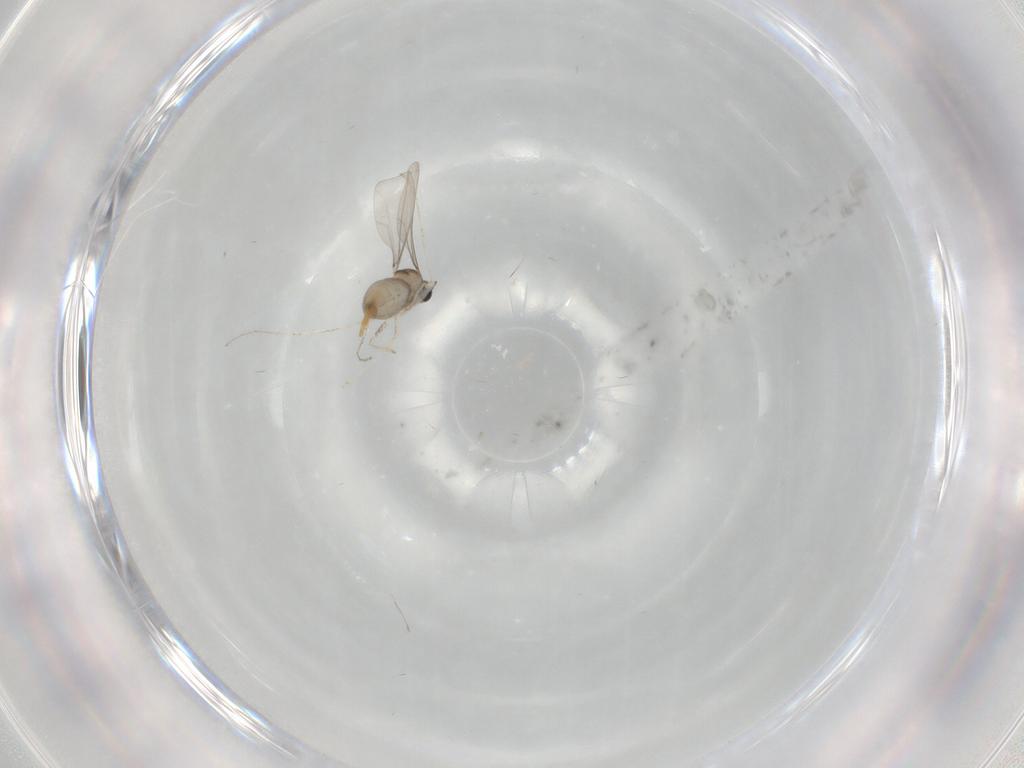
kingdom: Animalia
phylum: Arthropoda
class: Insecta
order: Diptera
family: Cecidomyiidae
